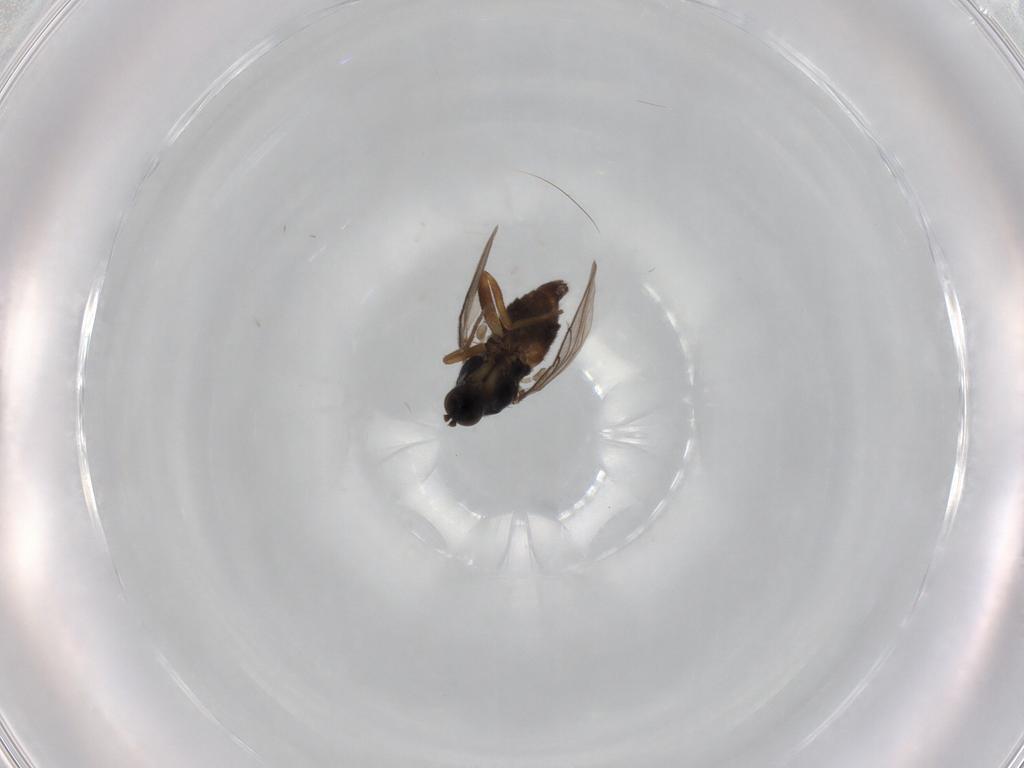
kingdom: Animalia
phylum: Arthropoda
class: Insecta
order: Diptera
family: Hybotidae
